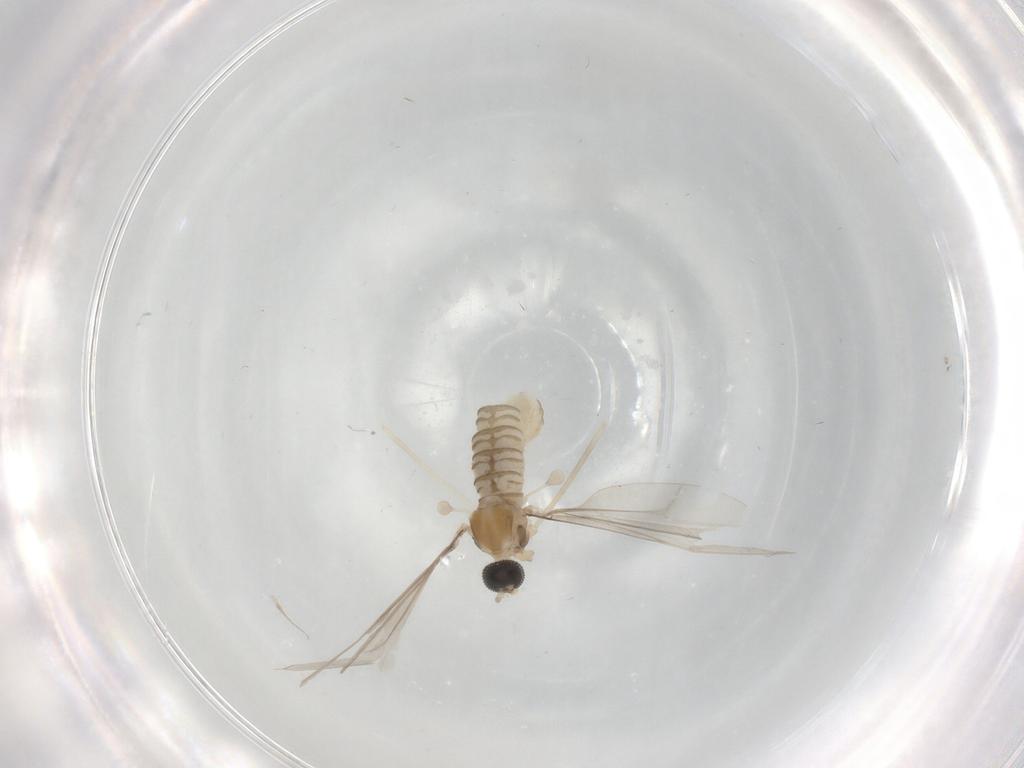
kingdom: Animalia
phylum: Arthropoda
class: Insecta
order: Diptera
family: Cecidomyiidae
